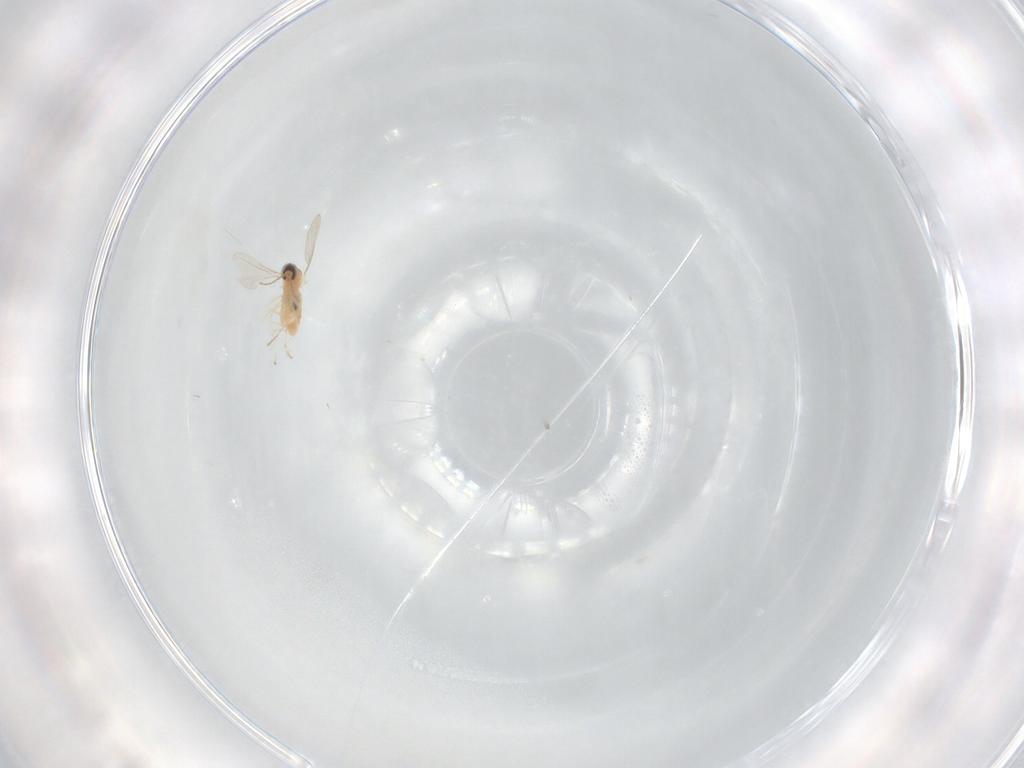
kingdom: Animalia
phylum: Arthropoda
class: Insecta
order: Diptera
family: Cecidomyiidae
